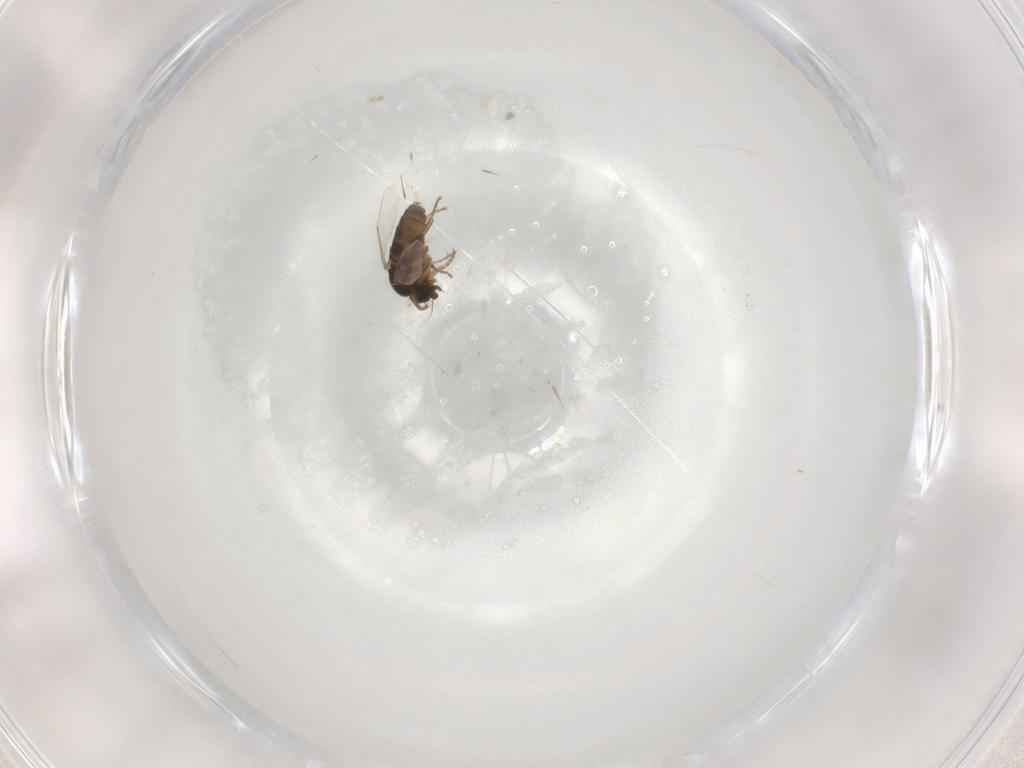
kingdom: Animalia
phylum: Arthropoda
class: Insecta
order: Diptera
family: Phoridae
